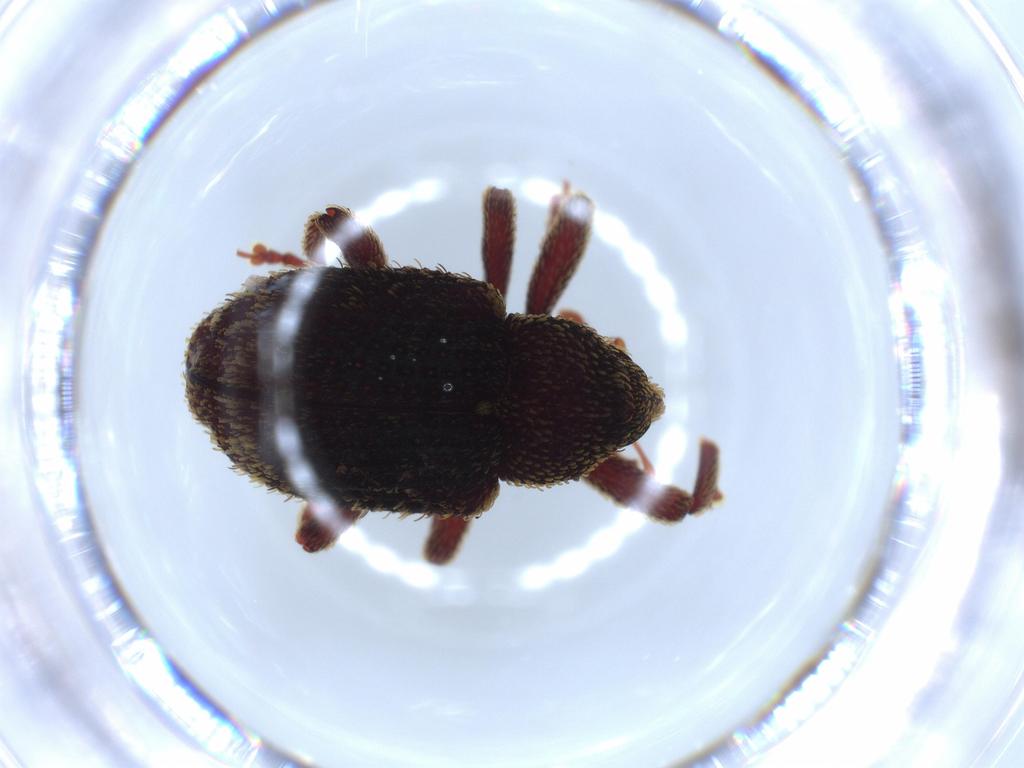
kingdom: Animalia
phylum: Arthropoda
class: Insecta
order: Coleoptera
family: Curculionidae
